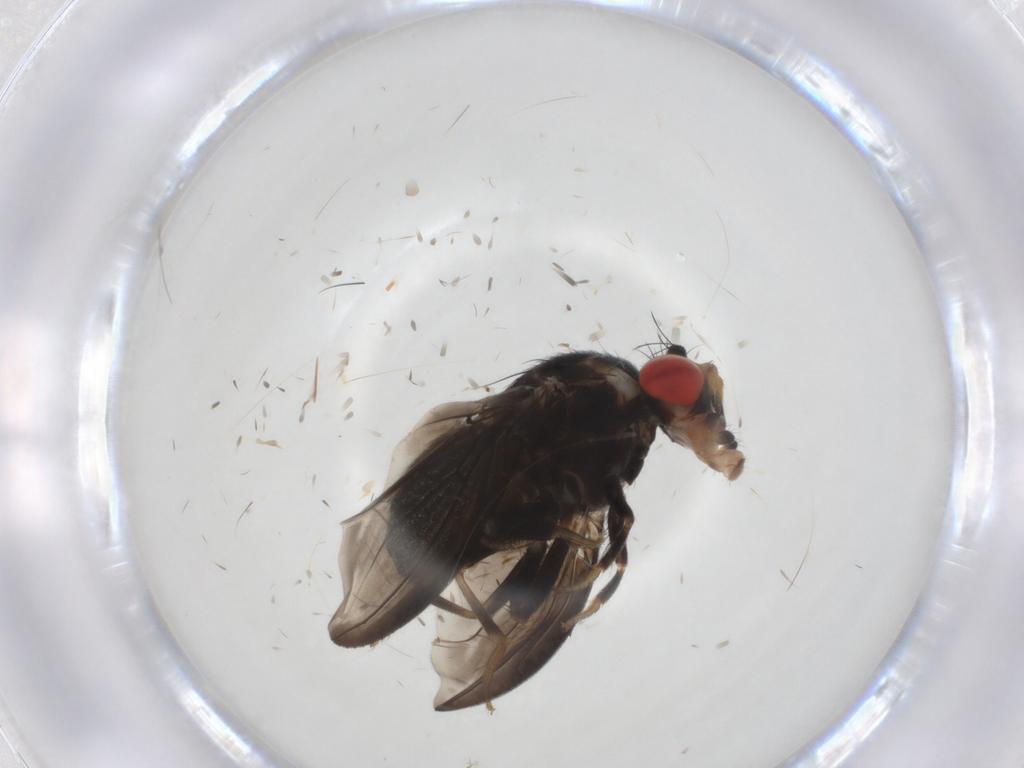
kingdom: Animalia
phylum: Arthropoda
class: Insecta
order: Diptera
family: Drosophilidae
